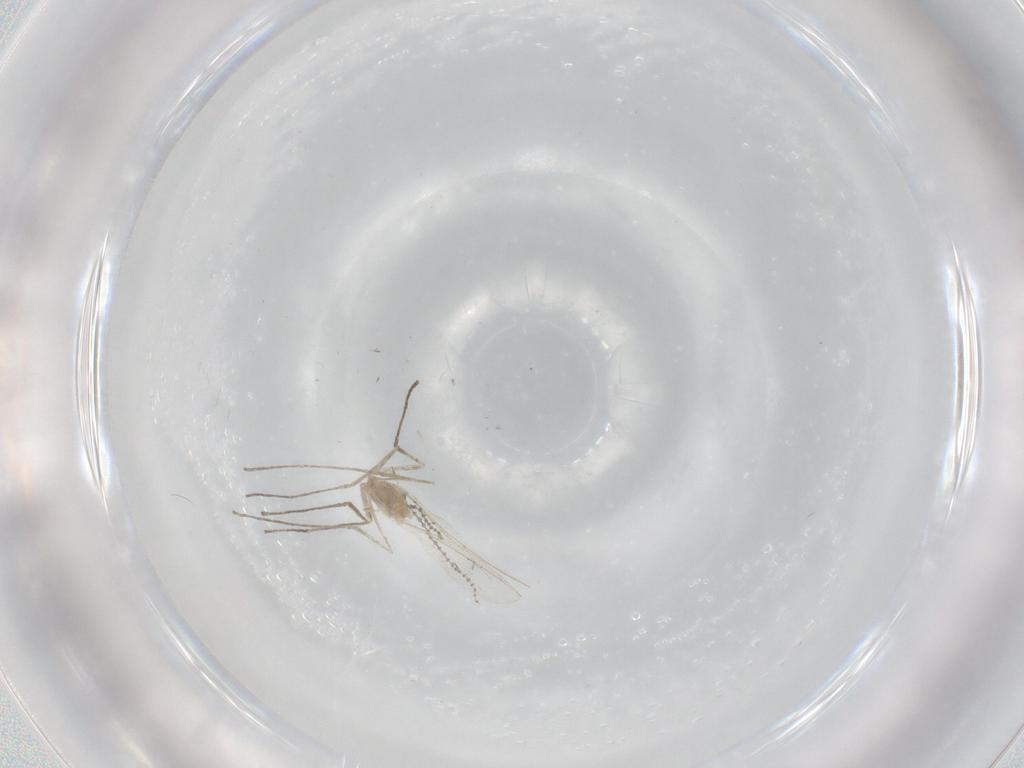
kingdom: Animalia
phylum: Arthropoda
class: Insecta
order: Diptera
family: Cecidomyiidae
